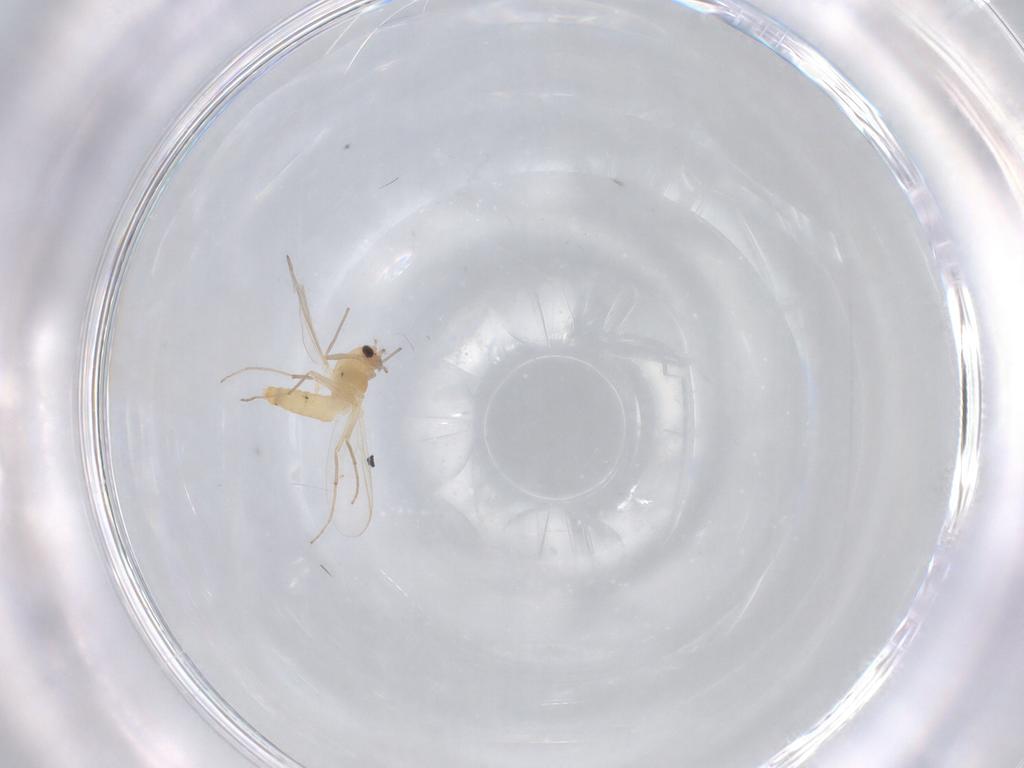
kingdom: Animalia
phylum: Arthropoda
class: Insecta
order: Diptera
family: Chironomidae
